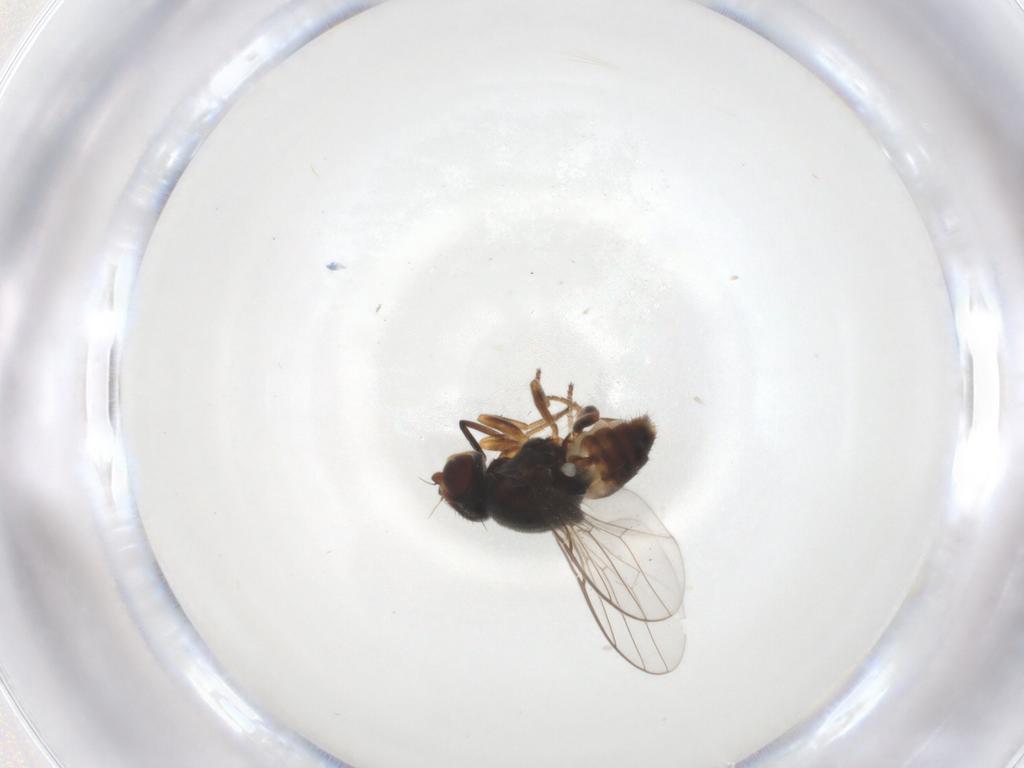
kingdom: Animalia
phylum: Arthropoda
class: Insecta
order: Diptera
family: Chloropidae
